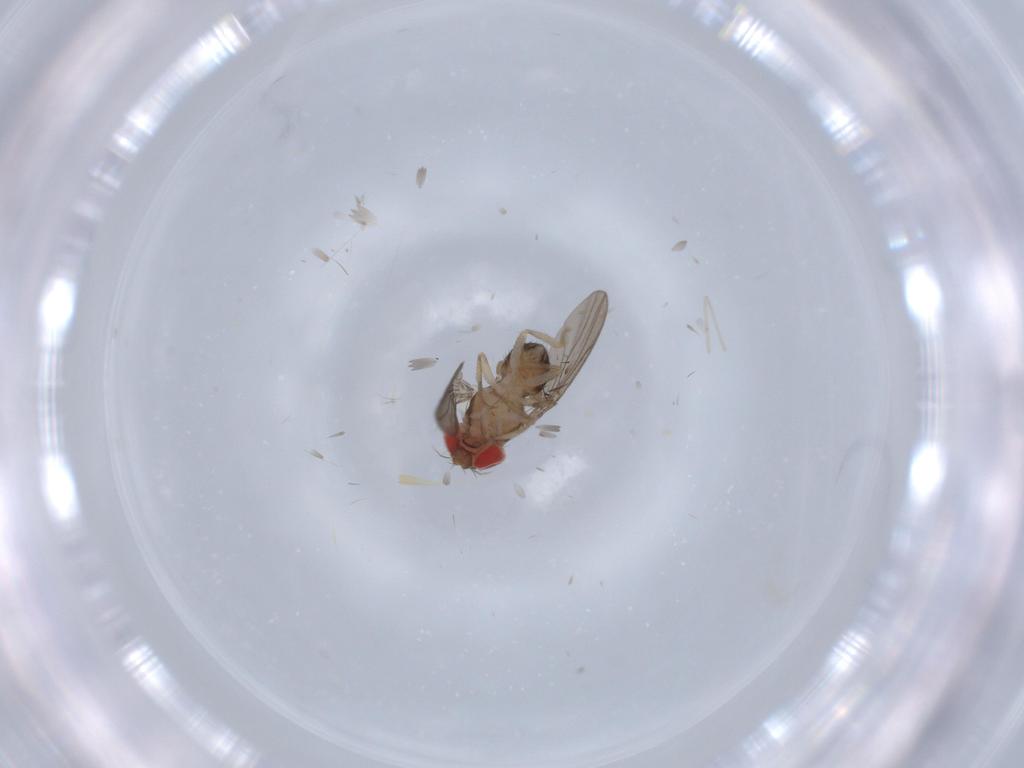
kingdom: Animalia
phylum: Arthropoda
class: Insecta
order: Diptera
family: Drosophilidae
